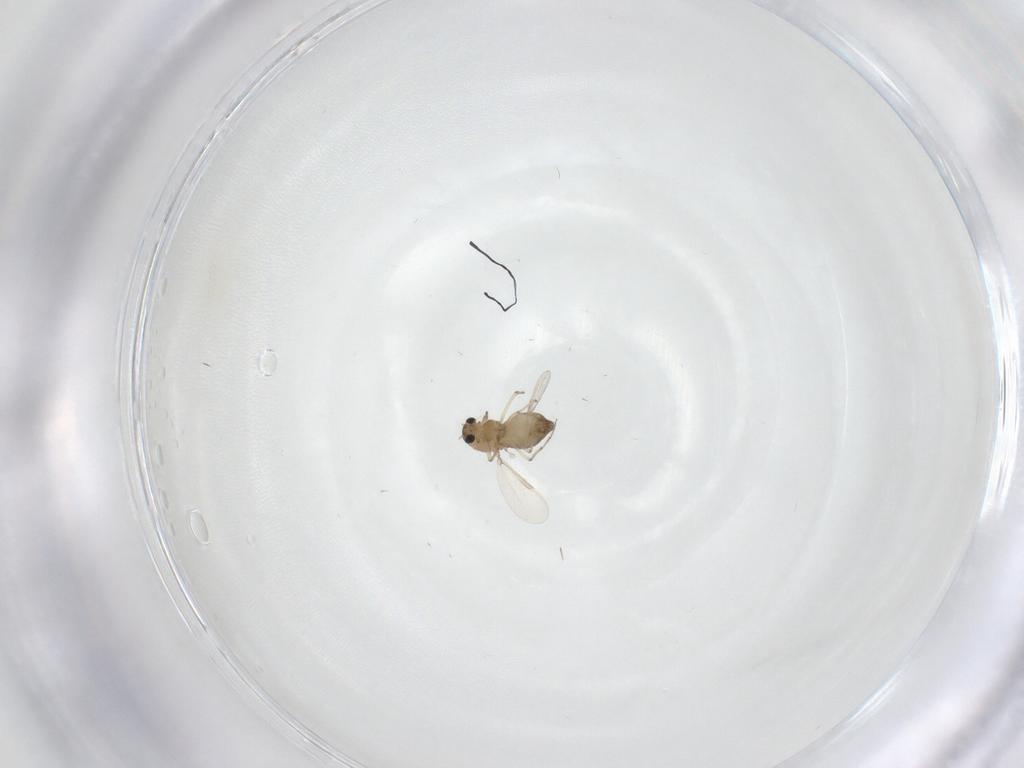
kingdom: Animalia
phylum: Arthropoda
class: Insecta
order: Diptera
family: Chironomidae
